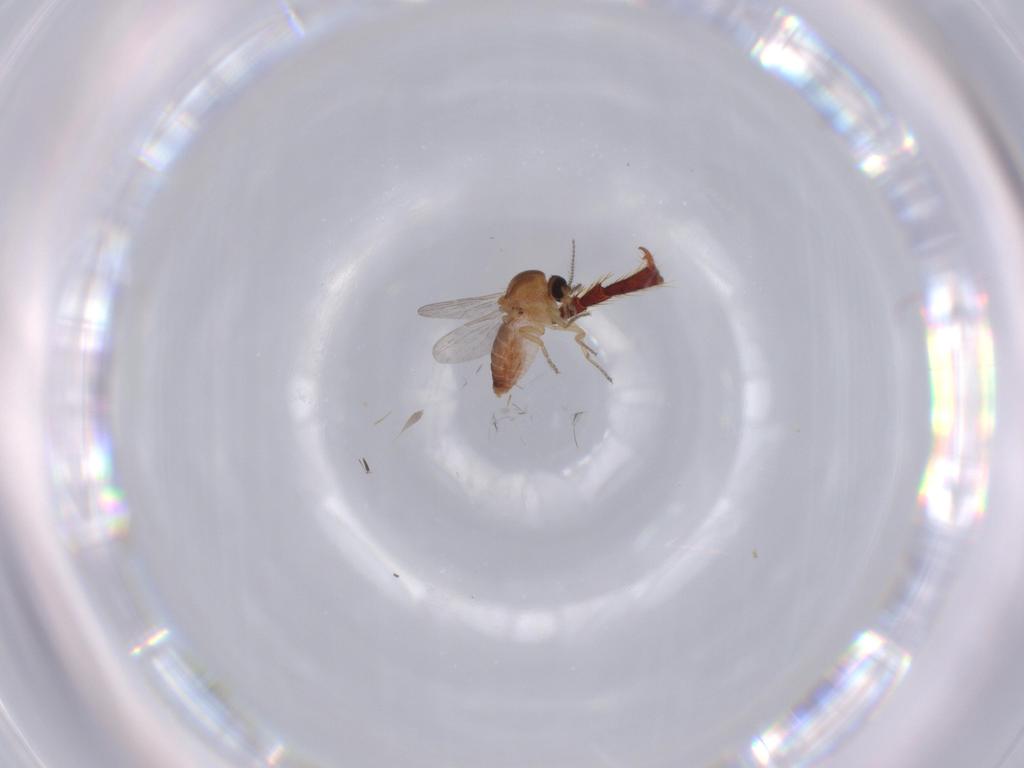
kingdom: Animalia
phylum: Arthropoda
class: Insecta
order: Diptera
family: Ceratopogonidae
